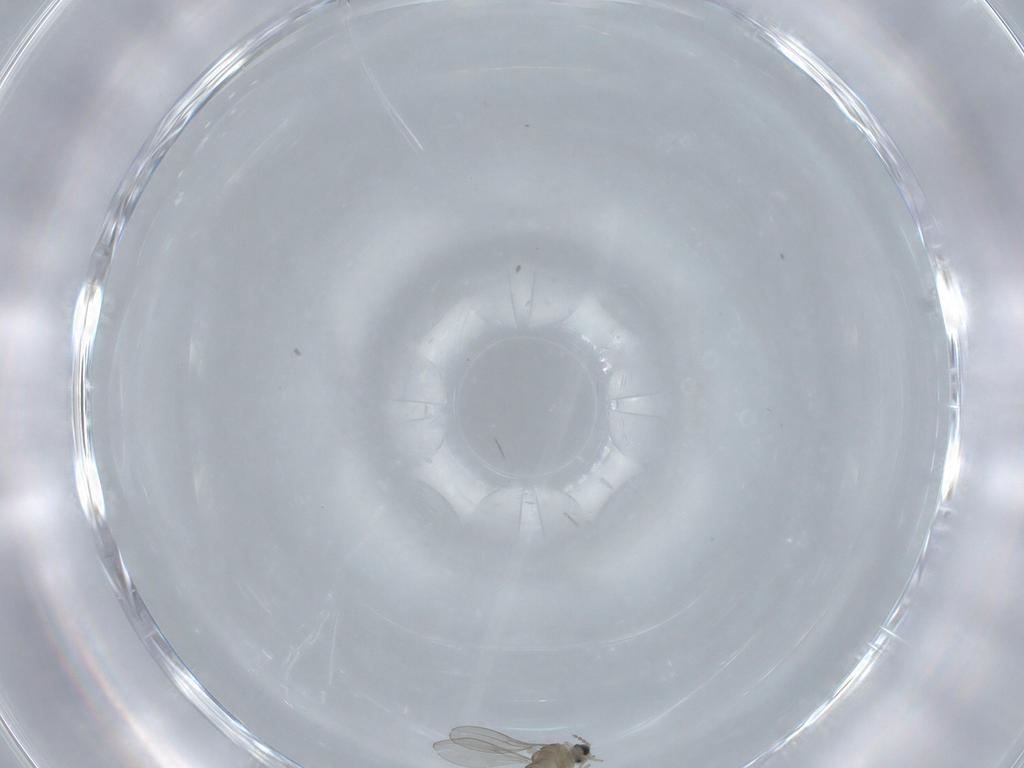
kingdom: Animalia
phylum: Arthropoda
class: Insecta
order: Diptera
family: Cecidomyiidae
